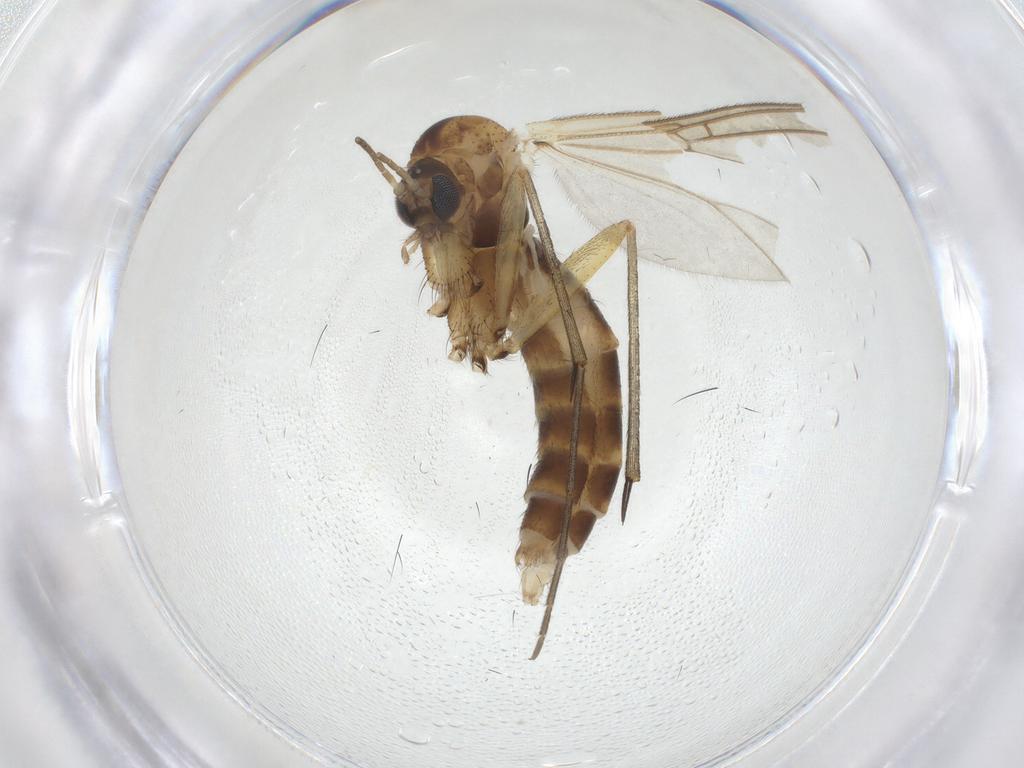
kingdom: Animalia
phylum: Arthropoda
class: Insecta
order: Diptera
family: Mycetophilidae
